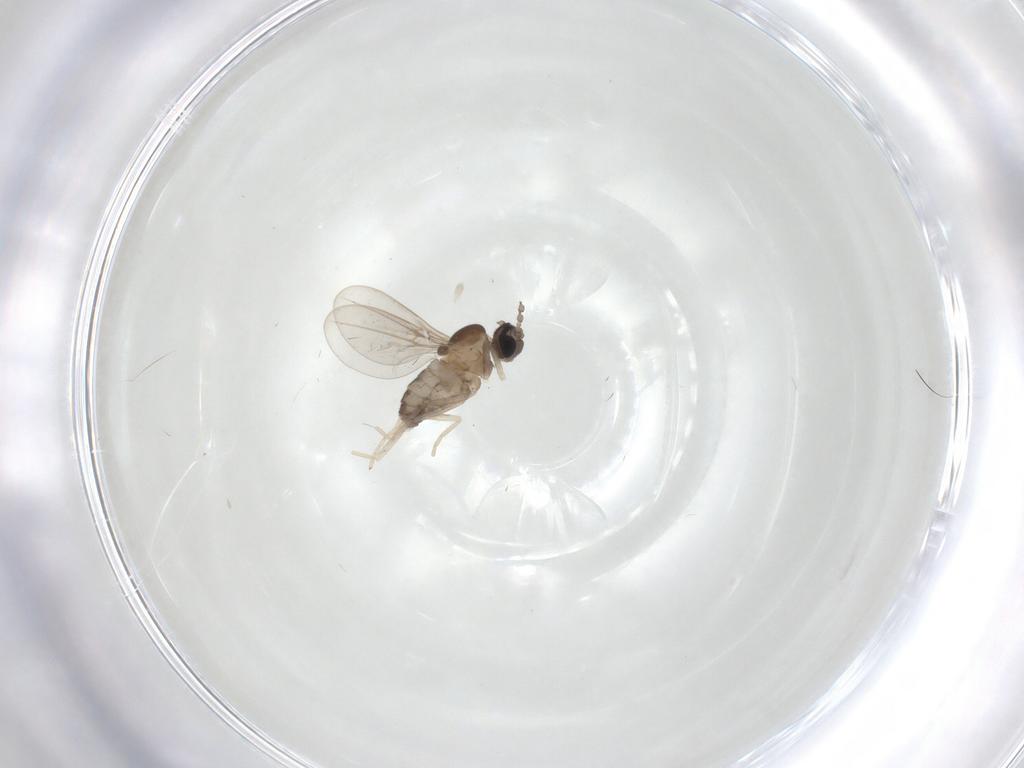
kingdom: Animalia
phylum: Arthropoda
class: Insecta
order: Diptera
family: Cecidomyiidae
